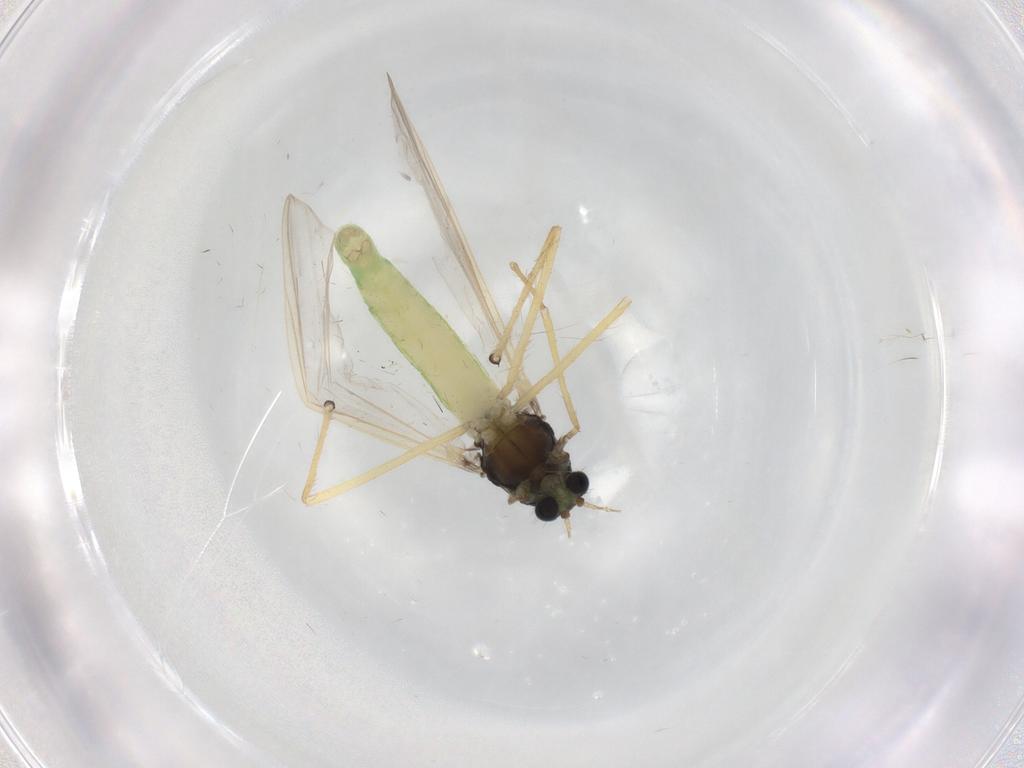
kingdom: Animalia
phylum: Arthropoda
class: Insecta
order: Diptera
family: Chironomidae
